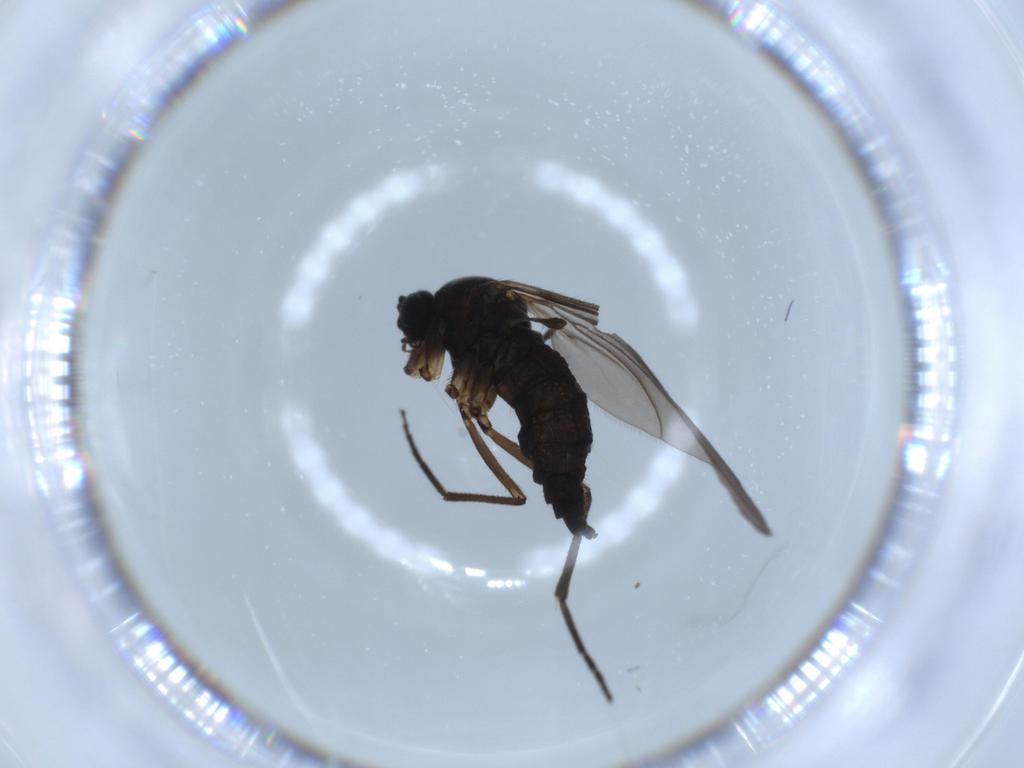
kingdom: Animalia
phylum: Arthropoda
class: Insecta
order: Diptera
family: Sciaridae
